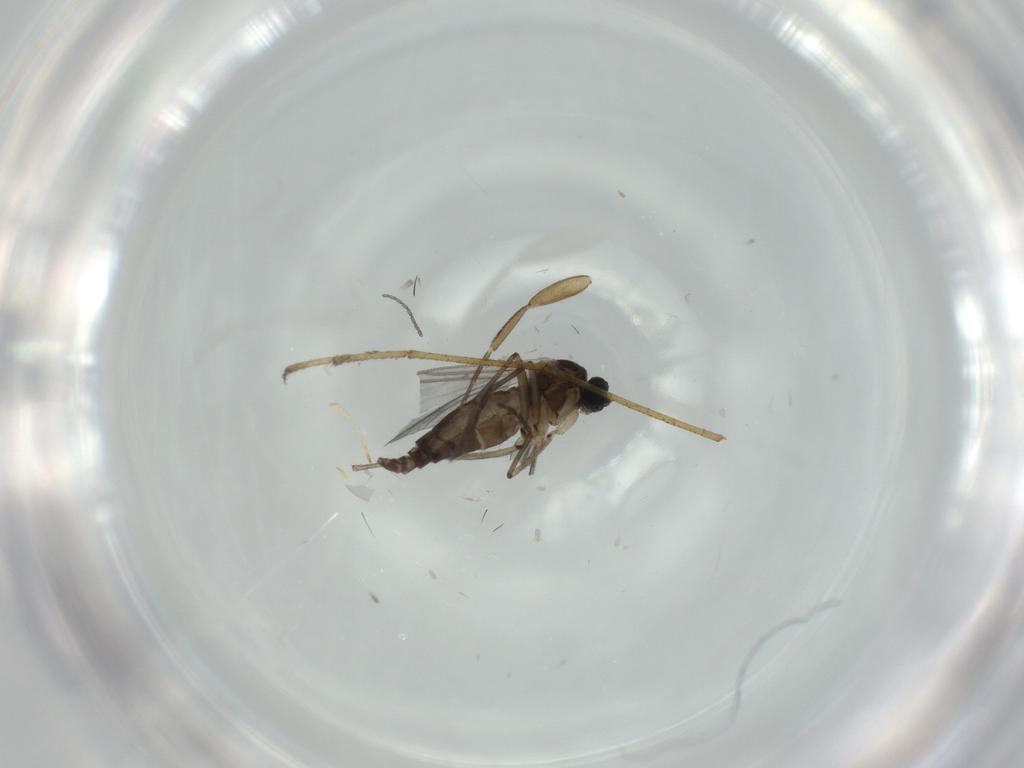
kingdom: Animalia
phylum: Arthropoda
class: Insecta
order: Diptera
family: Sciaridae
